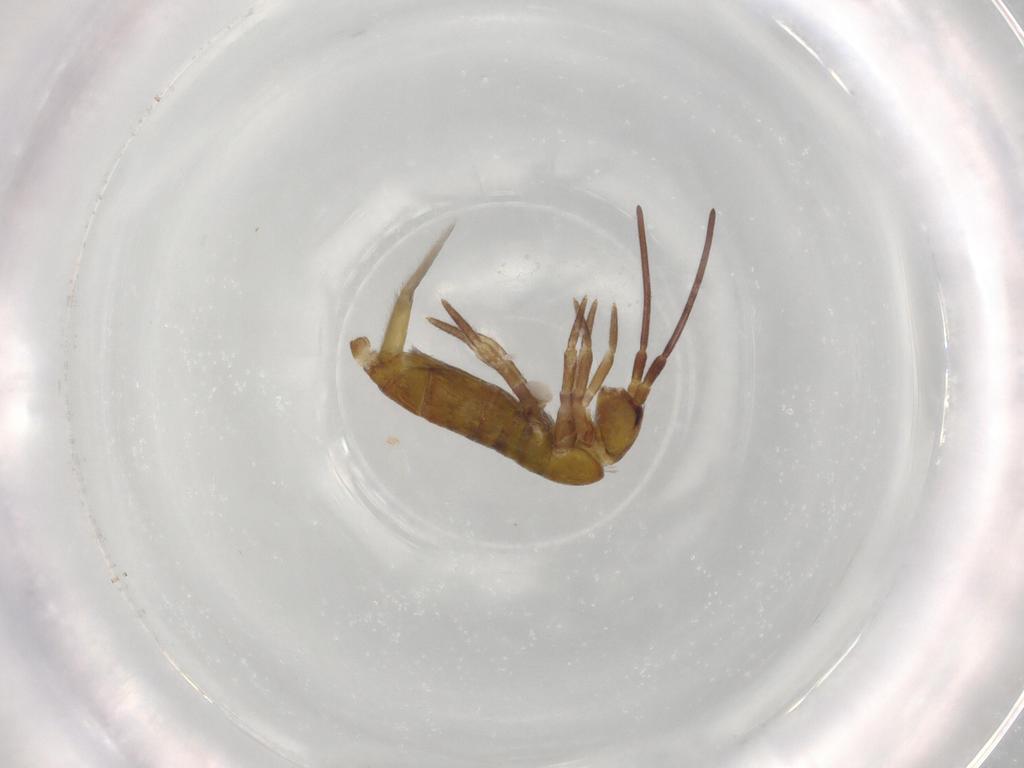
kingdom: Animalia
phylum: Arthropoda
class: Collembola
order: Entomobryomorpha
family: Tomoceridae
